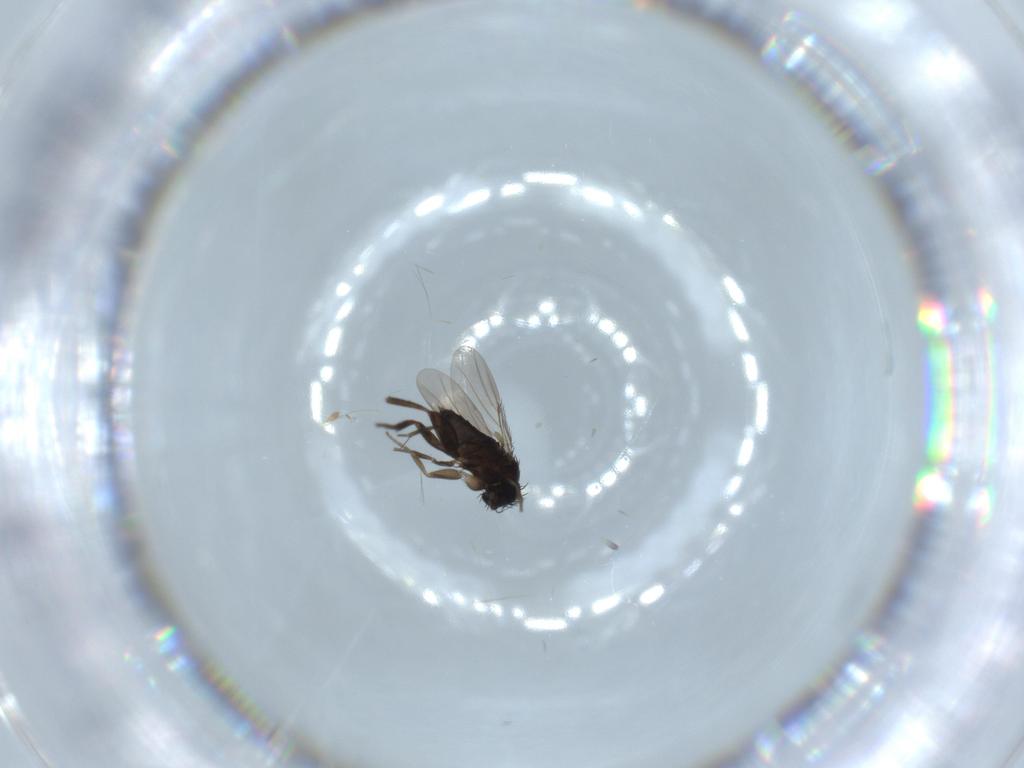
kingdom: Animalia
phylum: Arthropoda
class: Insecta
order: Diptera
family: Phoridae
